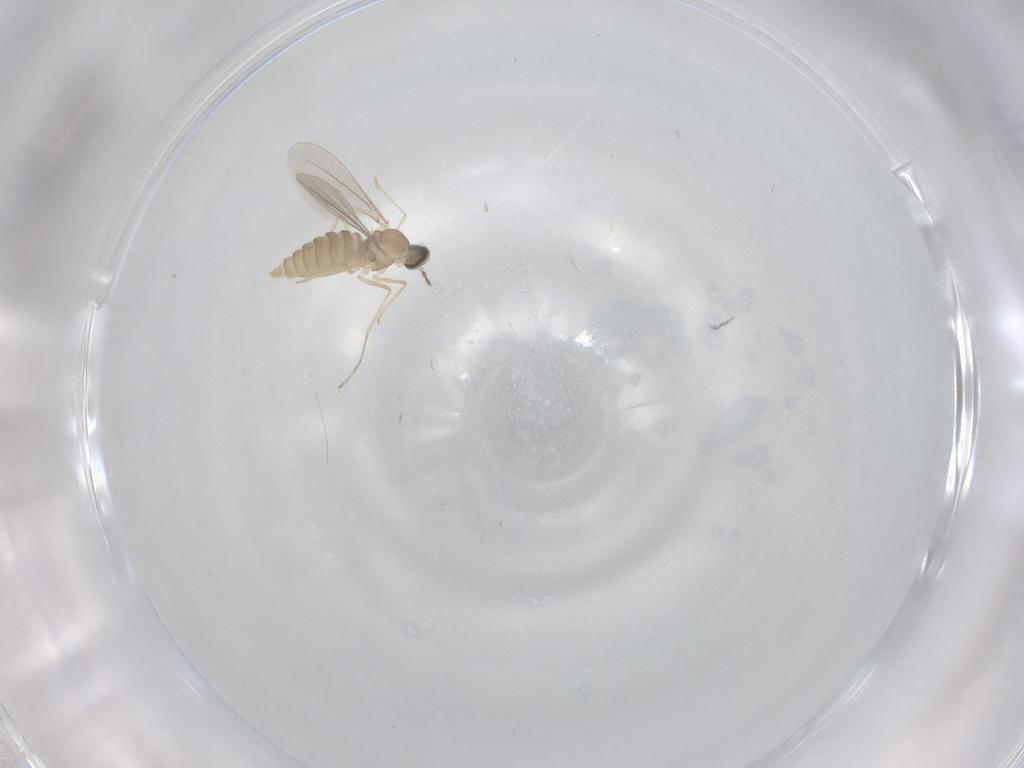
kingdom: Animalia
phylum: Arthropoda
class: Insecta
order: Diptera
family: Cecidomyiidae
